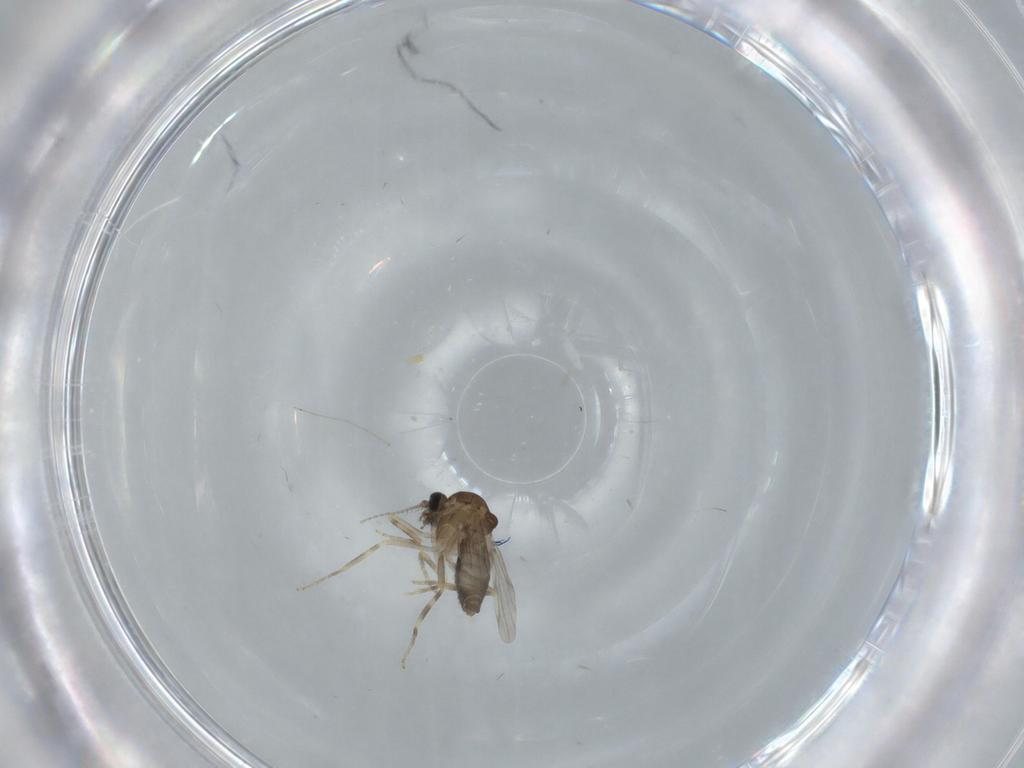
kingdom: Animalia
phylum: Arthropoda
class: Insecta
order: Diptera
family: Ceratopogonidae
